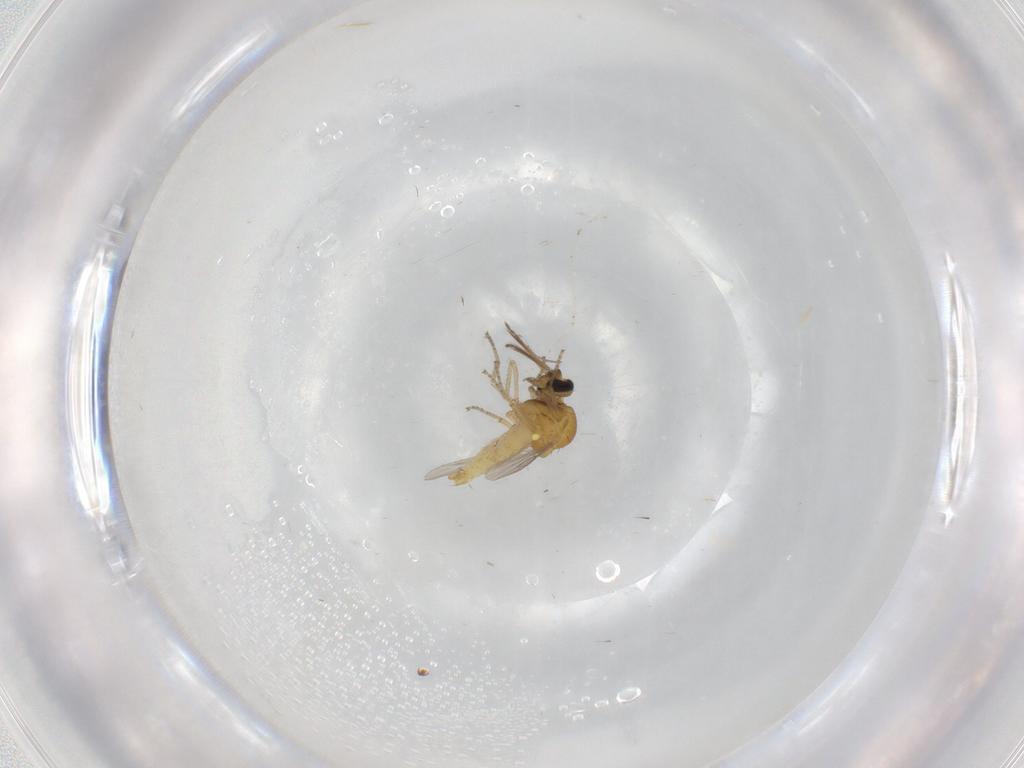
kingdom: Animalia
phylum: Arthropoda
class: Insecta
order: Diptera
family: Ceratopogonidae
